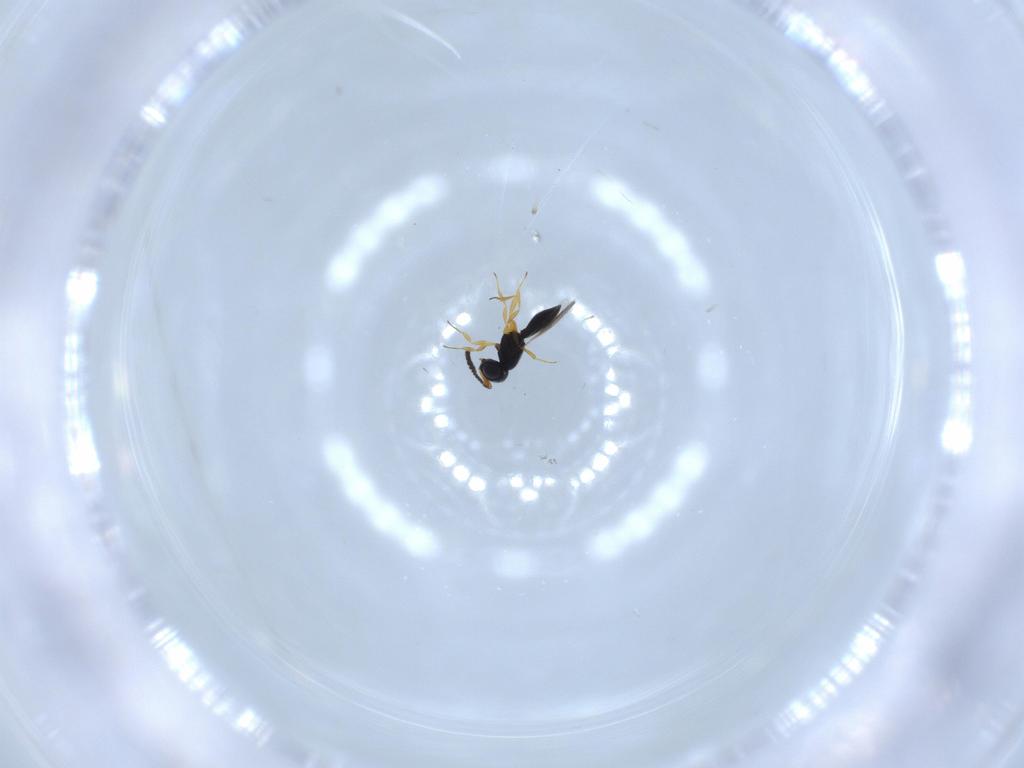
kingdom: Animalia
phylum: Arthropoda
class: Insecta
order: Hymenoptera
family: Scelionidae
